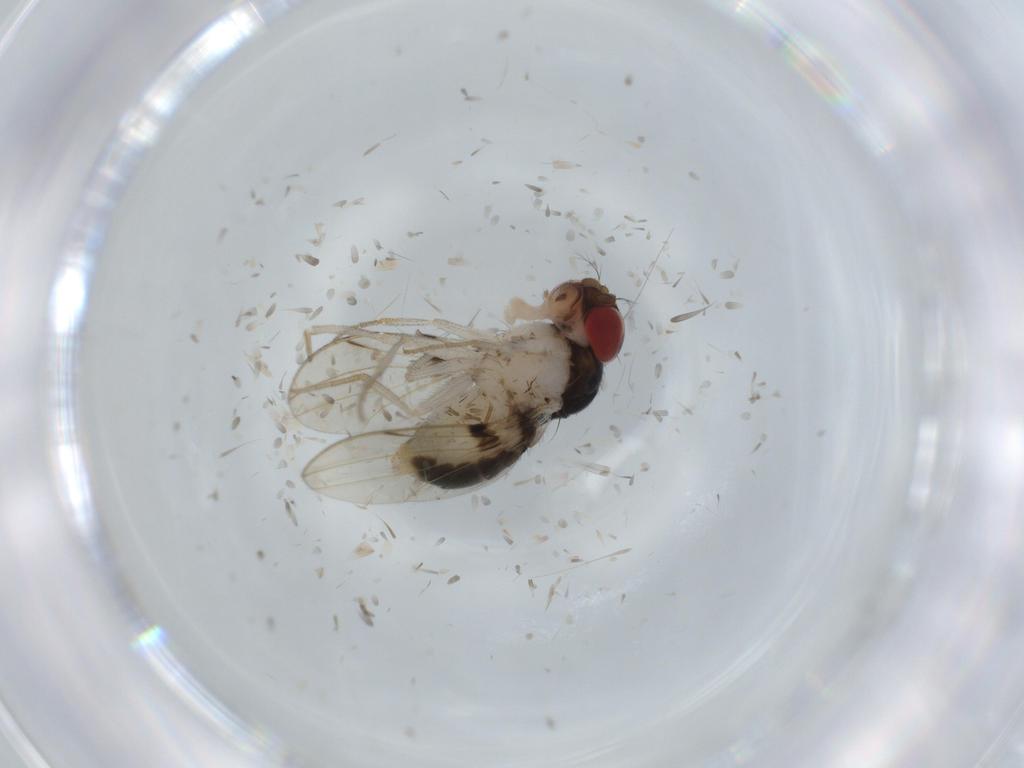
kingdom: Animalia
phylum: Arthropoda
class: Insecta
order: Diptera
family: Drosophilidae
